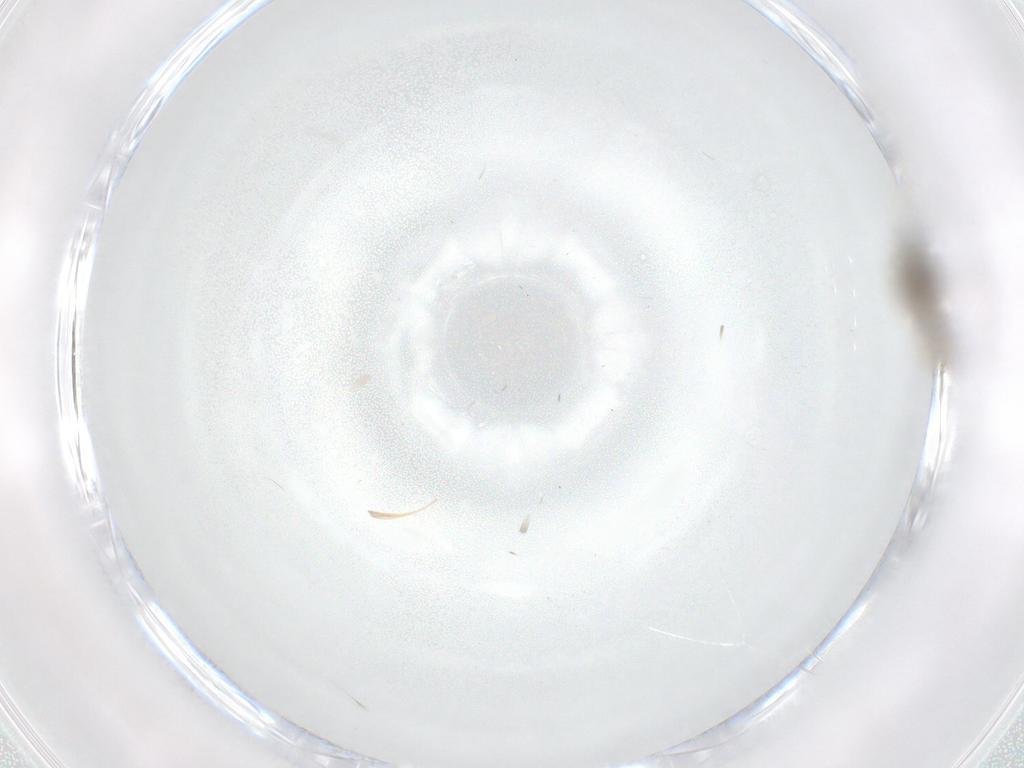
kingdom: Animalia
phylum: Arthropoda
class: Insecta
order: Diptera
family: Cecidomyiidae
